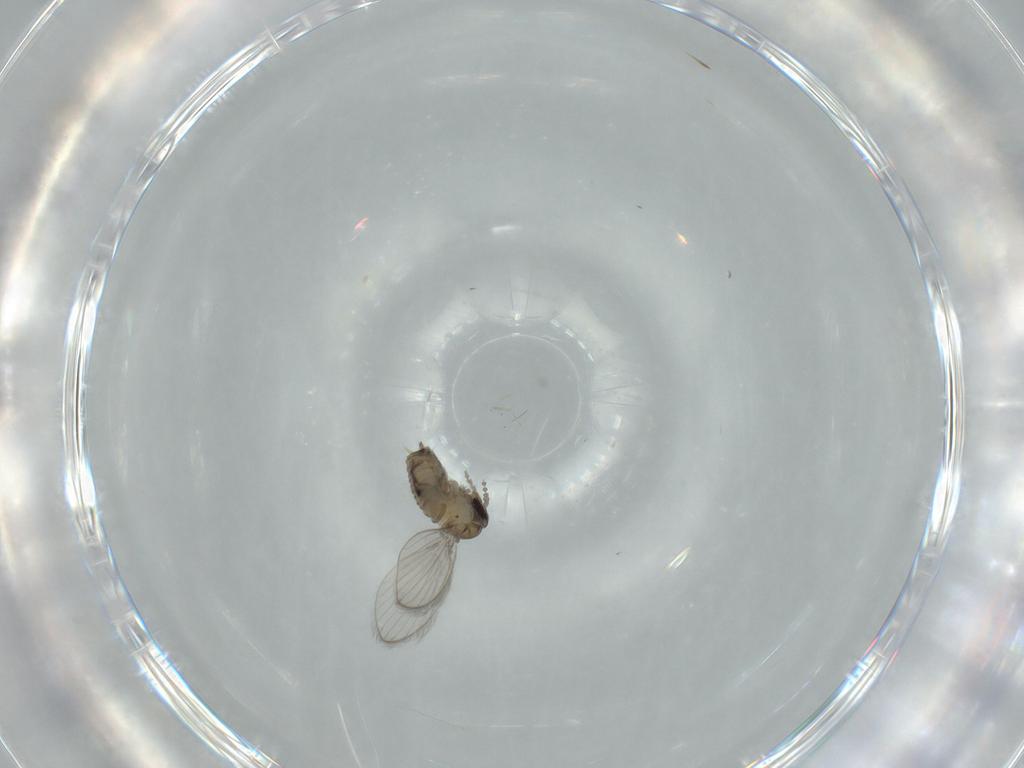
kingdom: Animalia
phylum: Arthropoda
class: Insecta
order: Diptera
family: Psychodidae
